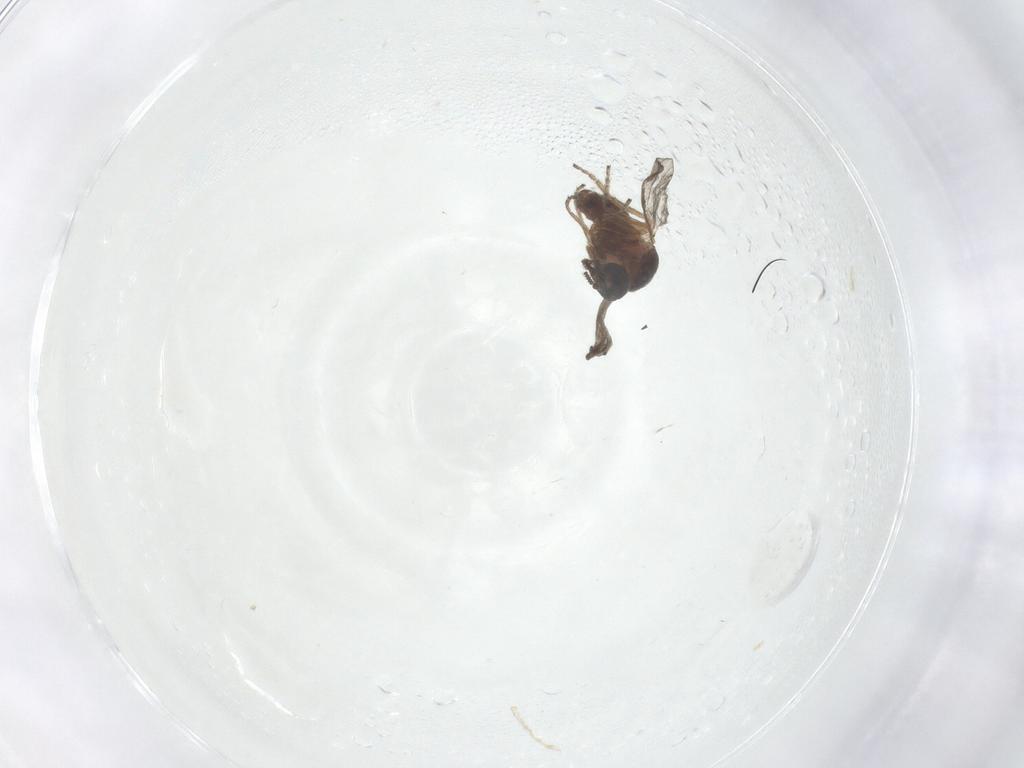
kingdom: Animalia
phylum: Arthropoda
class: Insecta
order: Diptera
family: Ceratopogonidae
